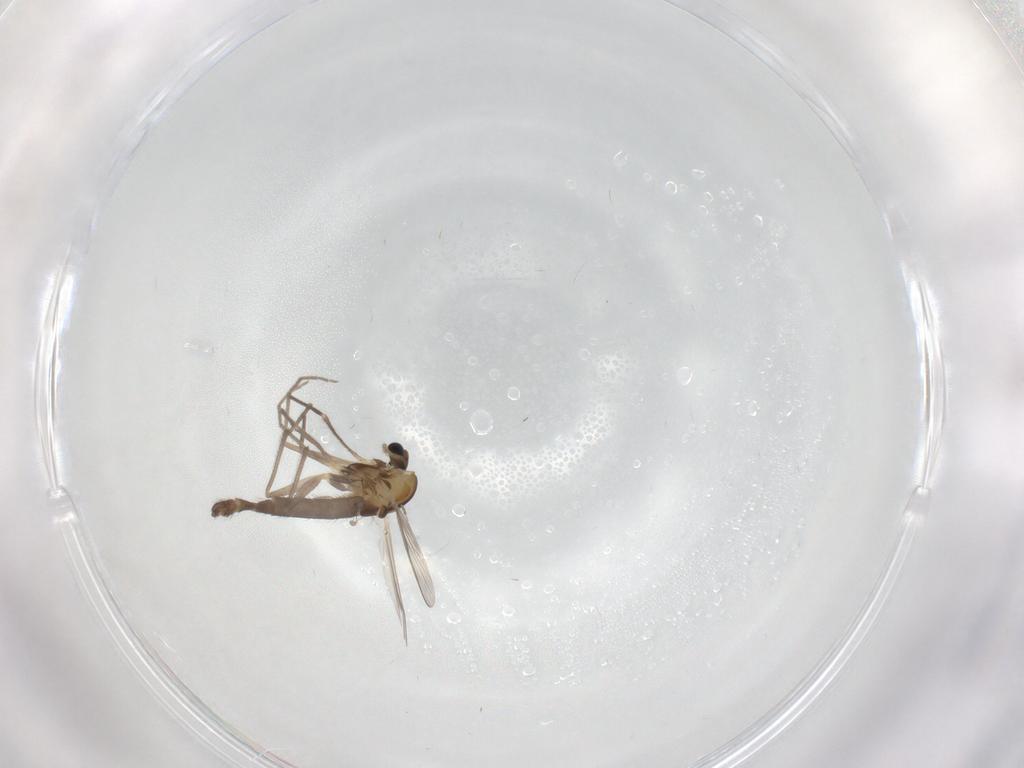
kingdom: Animalia
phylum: Arthropoda
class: Insecta
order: Diptera
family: Chironomidae
